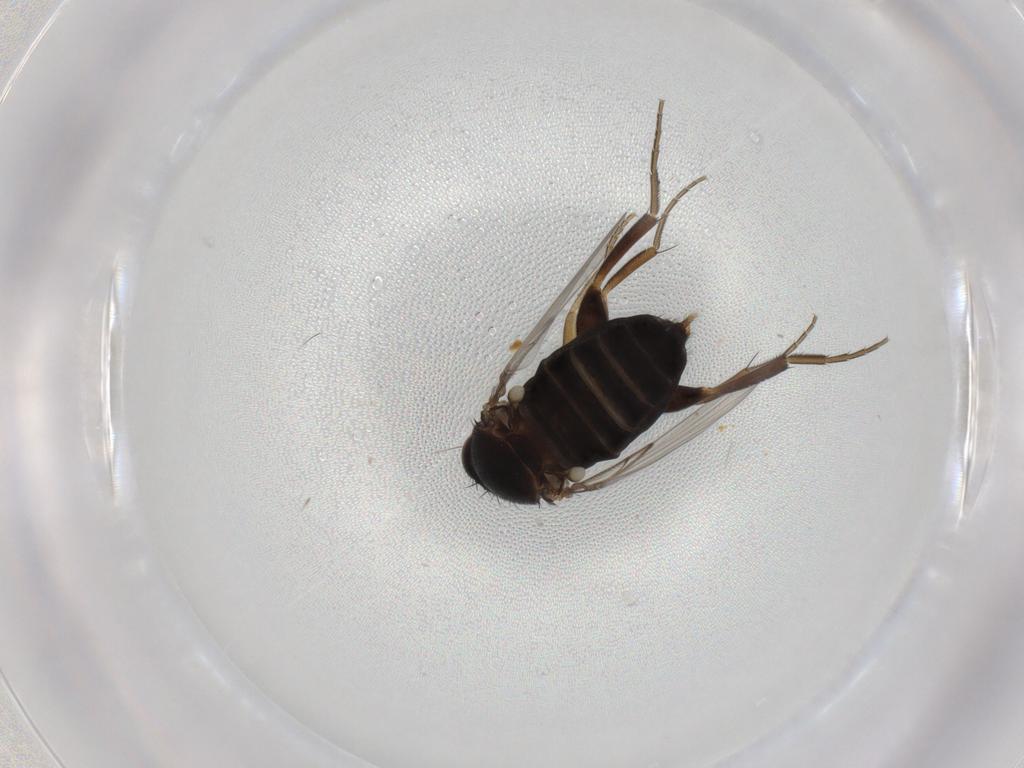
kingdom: Animalia
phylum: Arthropoda
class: Insecta
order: Diptera
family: Phoridae
